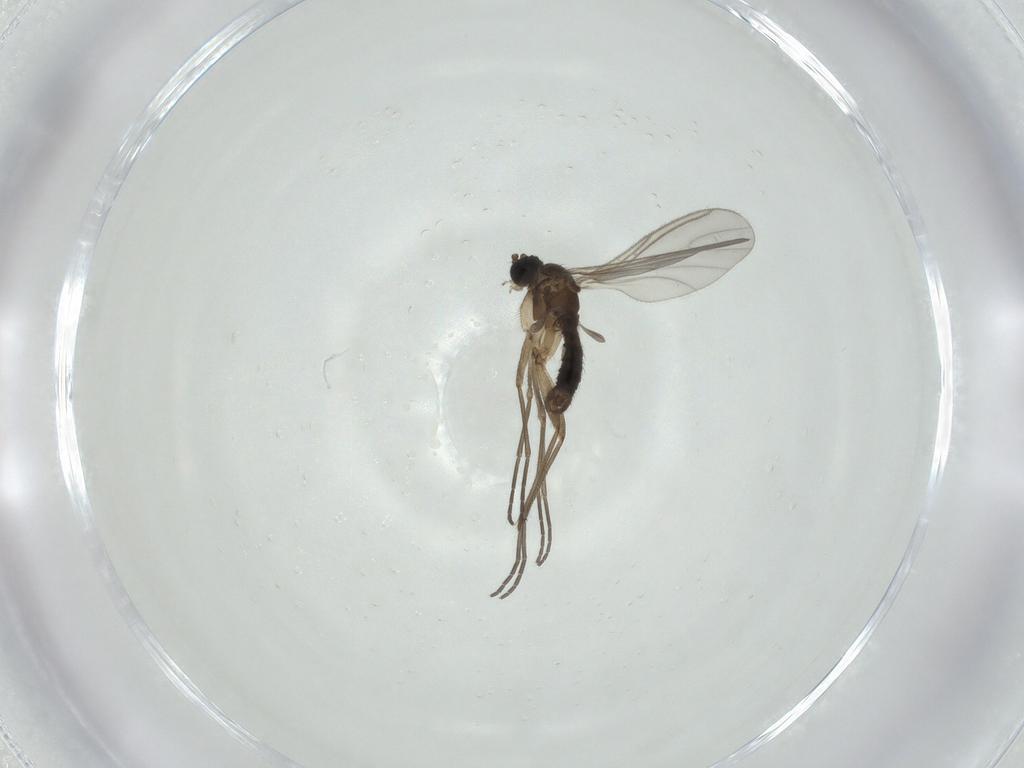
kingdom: Animalia
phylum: Arthropoda
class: Insecta
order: Diptera
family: Sciaridae
